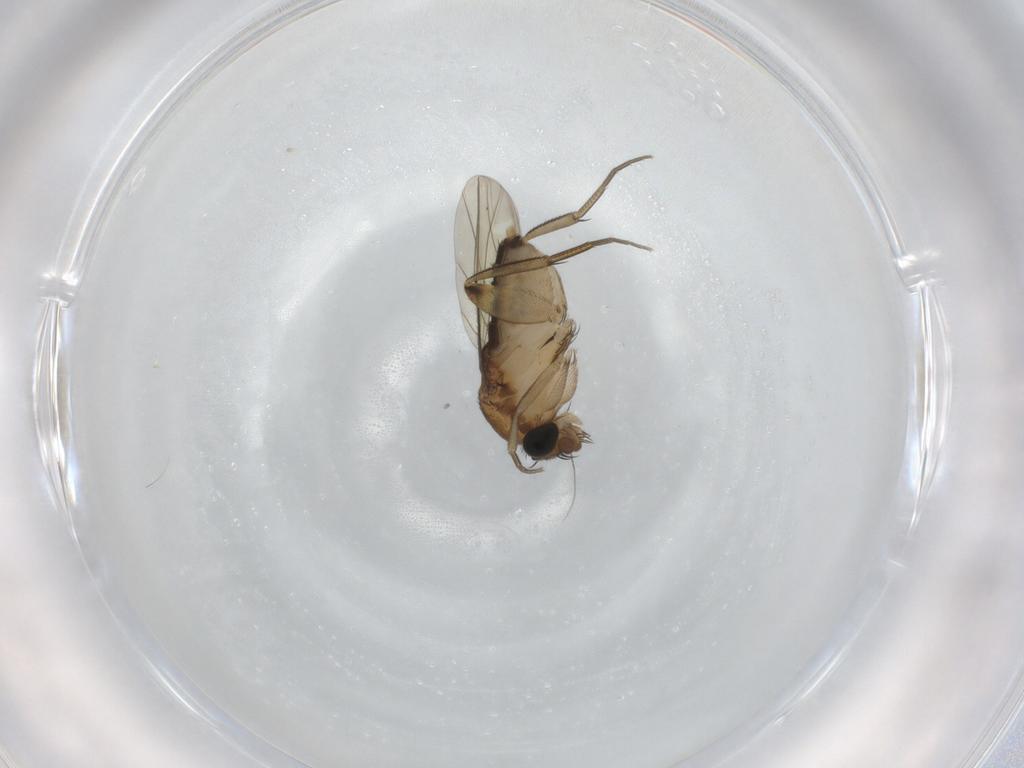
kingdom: Animalia
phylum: Arthropoda
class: Insecta
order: Diptera
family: Phoridae
